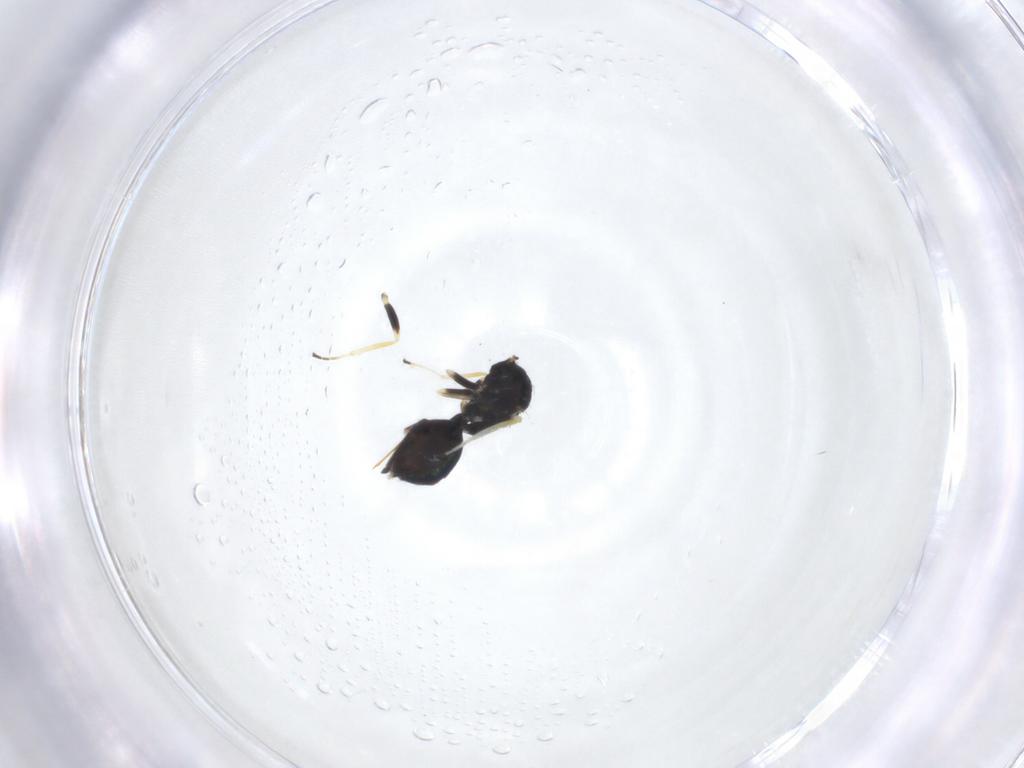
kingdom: Animalia
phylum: Arthropoda
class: Insecta
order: Hymenoptera
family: Eulophidae
